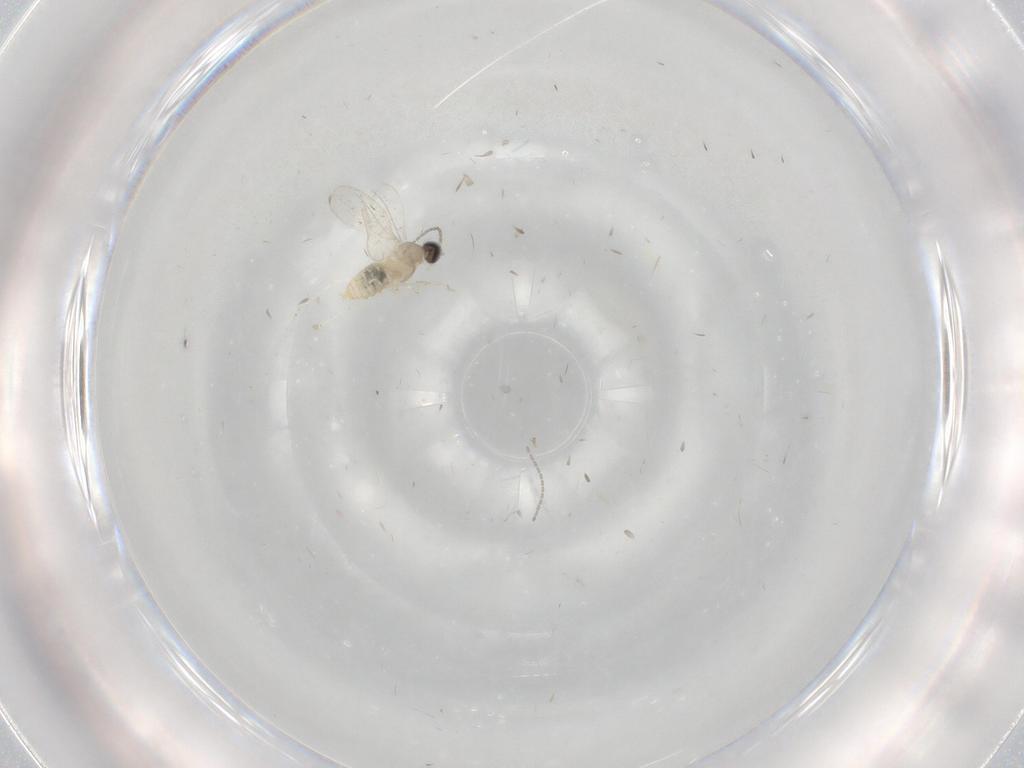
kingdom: Animalia
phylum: Arthropoda
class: Insecta
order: Diptera
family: Cecidomyiidae
